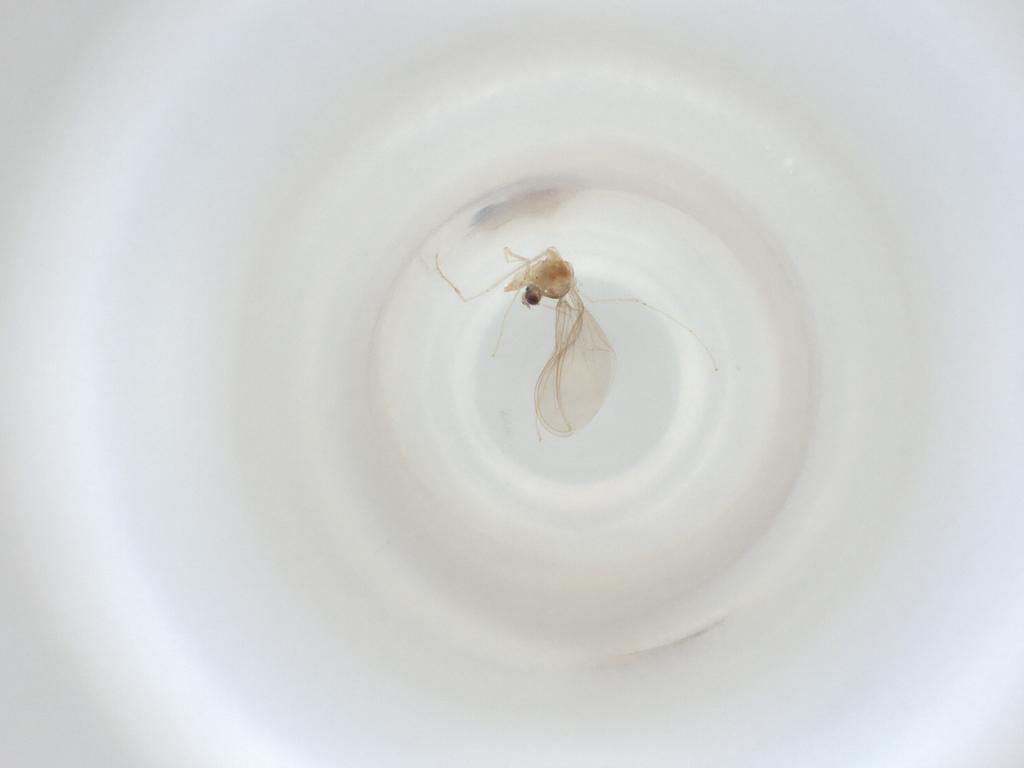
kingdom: Animalia
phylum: Arthropoda
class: Insecta
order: Diptera
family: Cecidomyiidae
